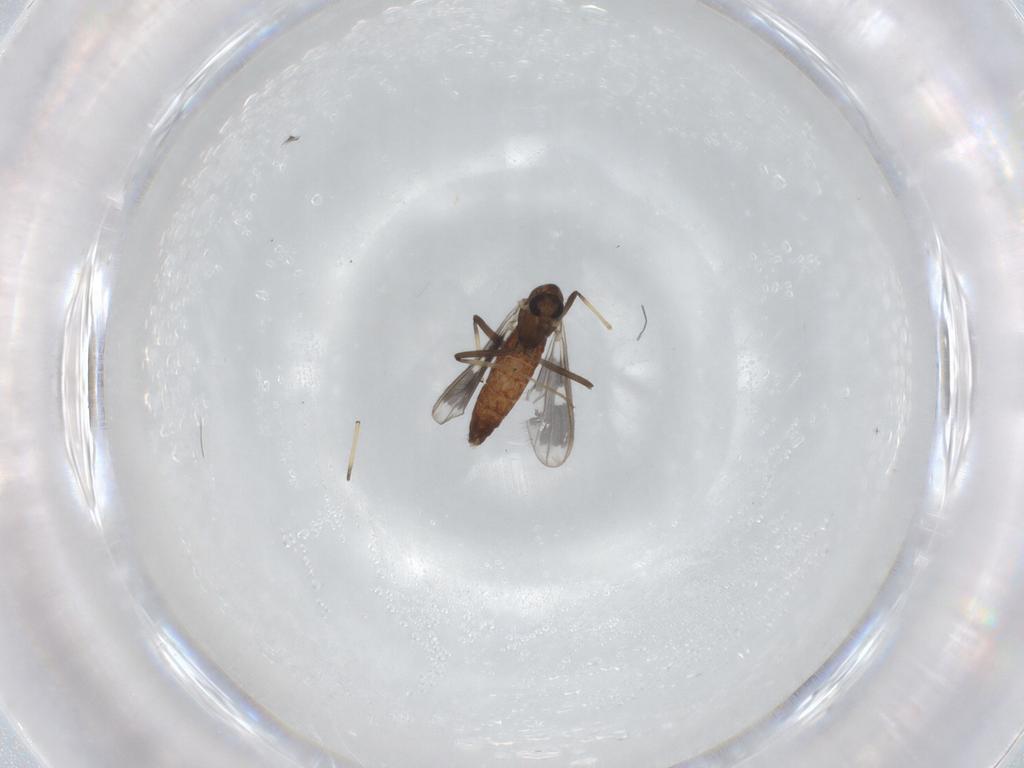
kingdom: Animalia
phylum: Arthropoda
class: Insecta
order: Diptera
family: Chironomidae
